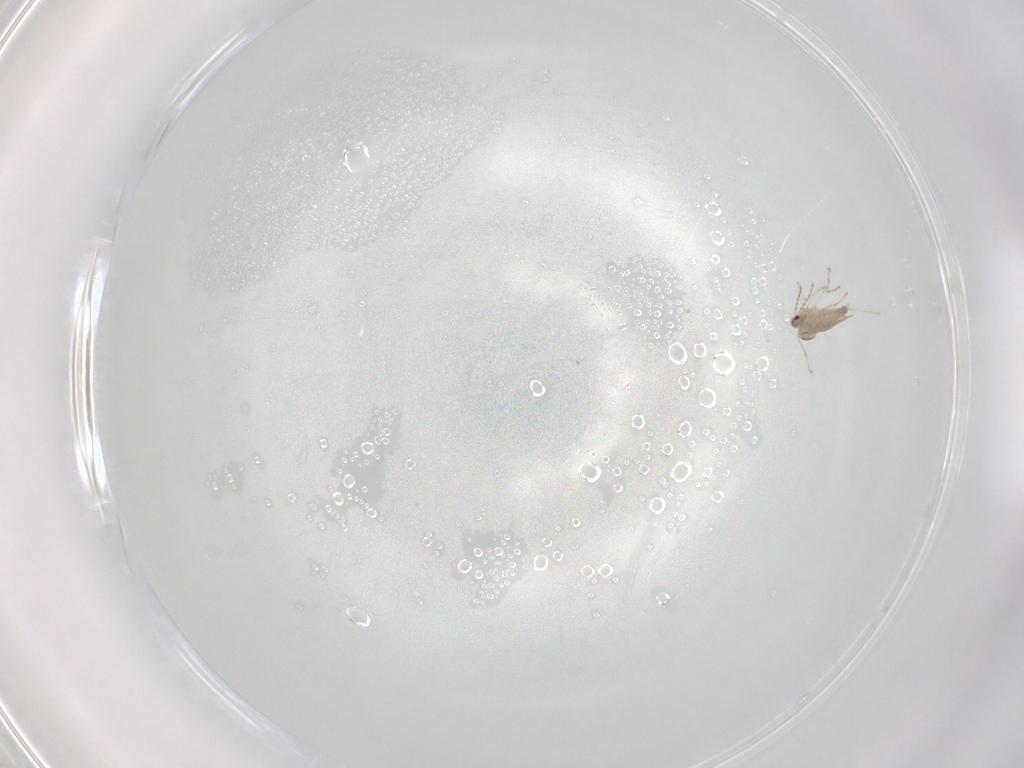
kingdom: Animalia
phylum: Arthropoda
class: Insecta
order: Diptera
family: Cecidomyiidae
